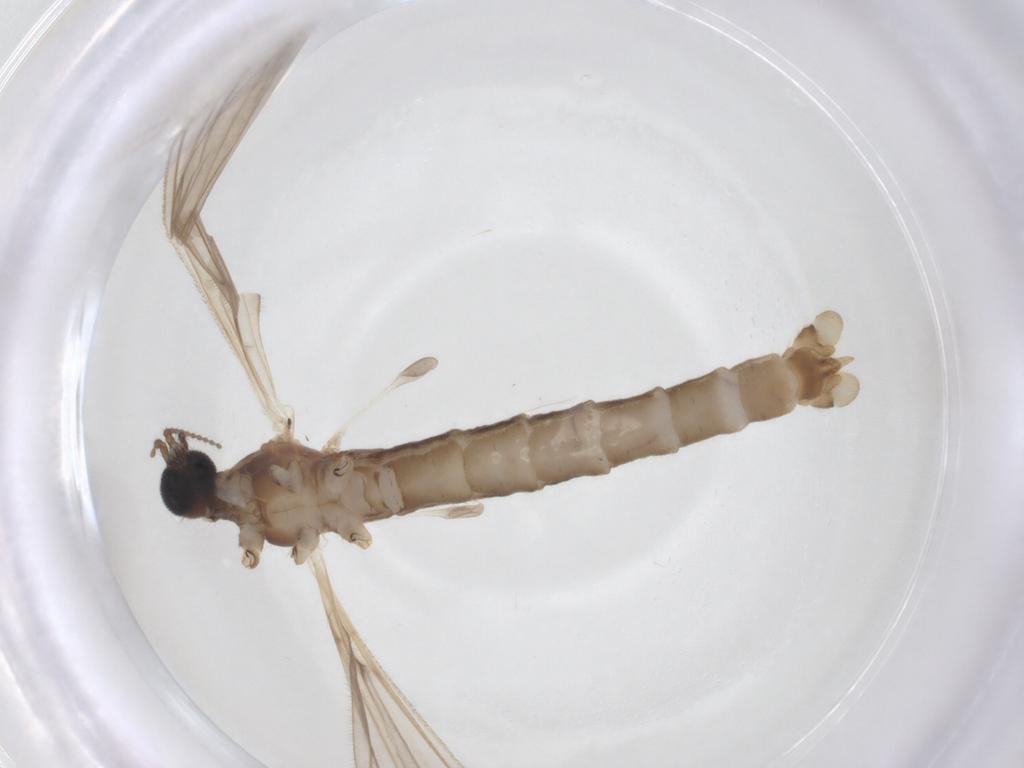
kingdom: Animalia
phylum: Arthropoda
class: Insecta
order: Diptera
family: Limoniidae
